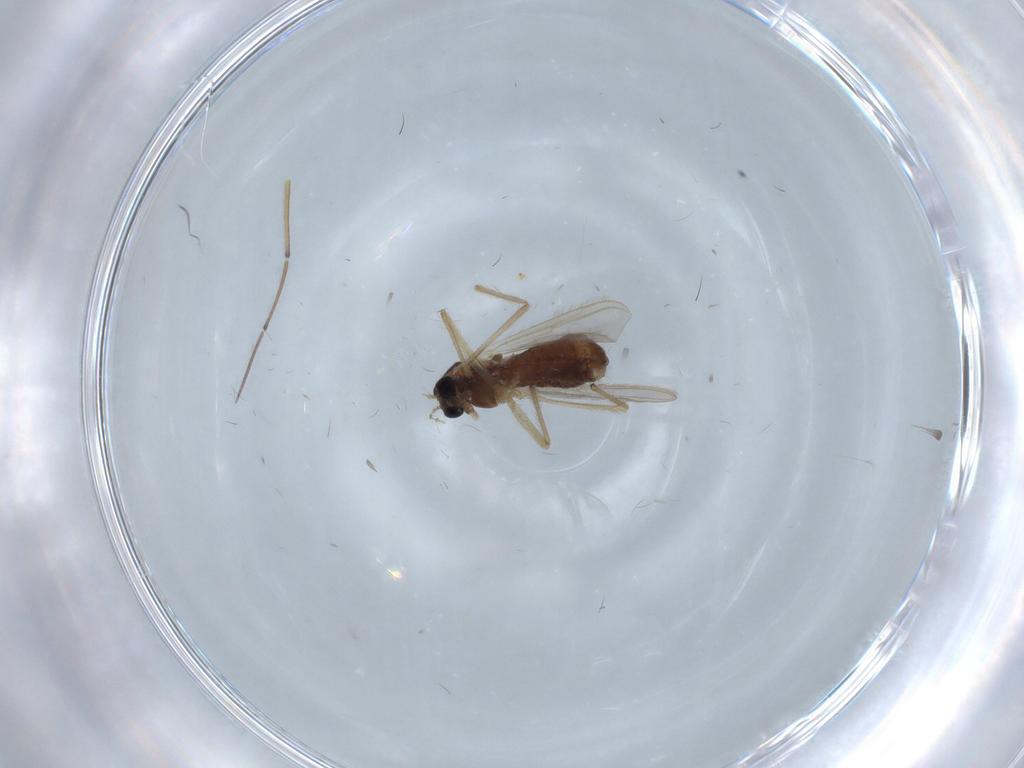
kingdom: Animalia
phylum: Arthropoda
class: Insecta
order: Diptera
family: Chironomidae
